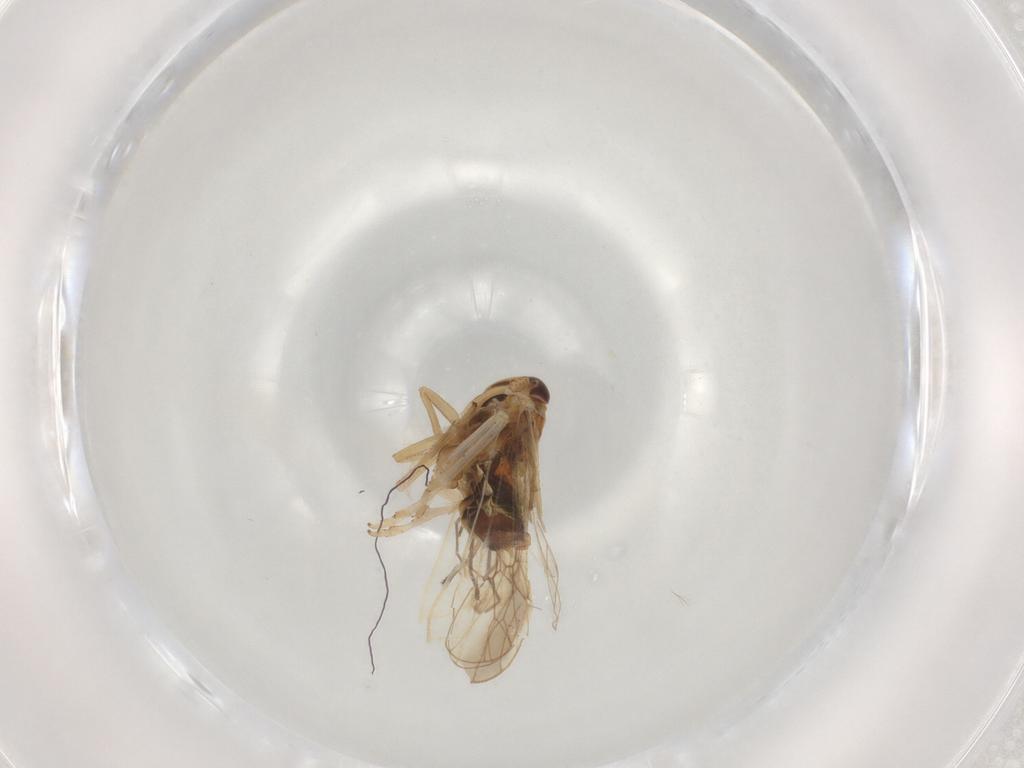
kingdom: Animalia
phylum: Arthropoda
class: Insecta
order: Hemiptera
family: Delphacidae
